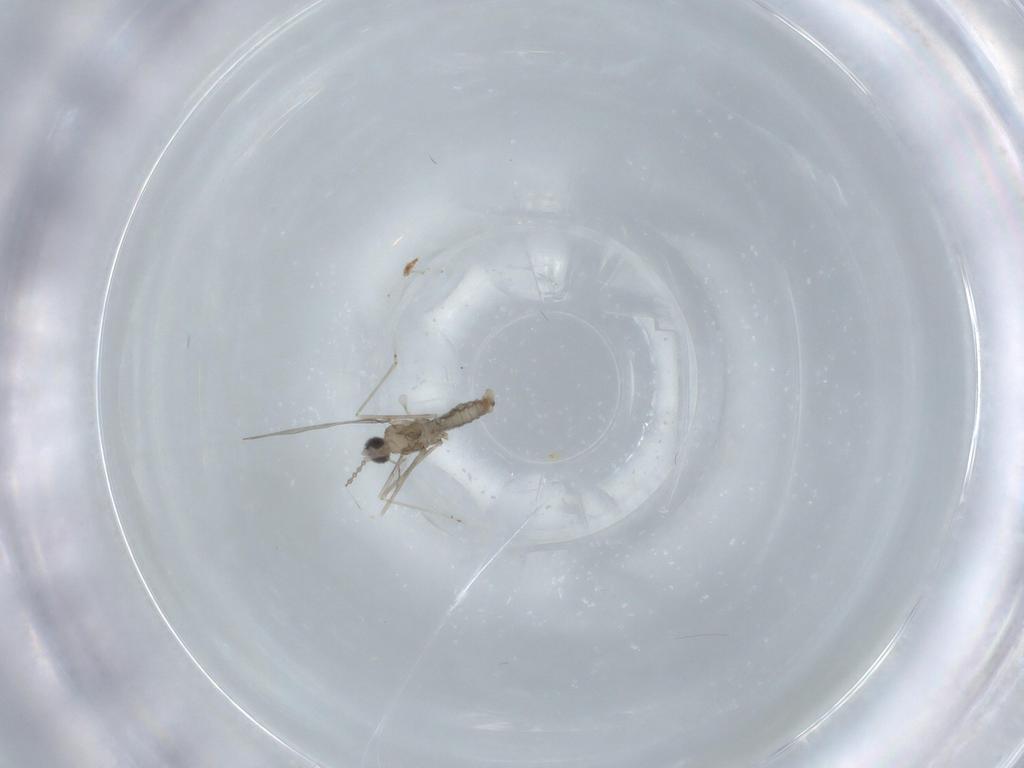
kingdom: Animalia
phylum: Arthropoda
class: Insecta
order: Diptera
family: Cecidomyiidae
